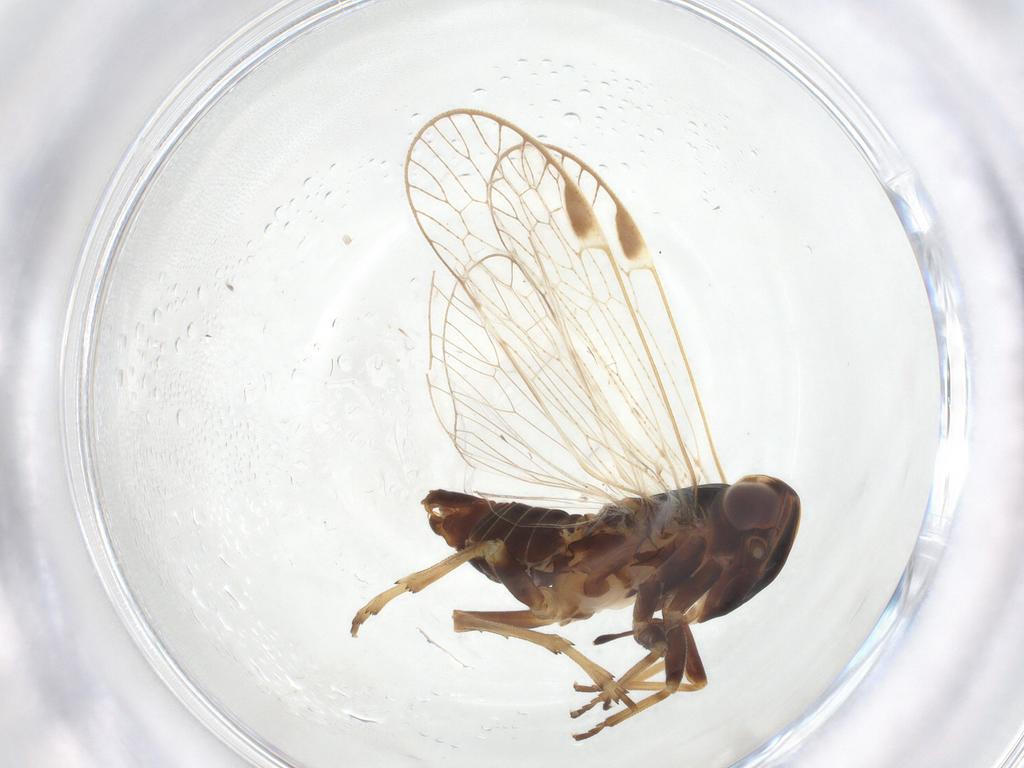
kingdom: Animalia
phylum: Arthropoda
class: Insecta
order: Hemiptera
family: Cixiidae
